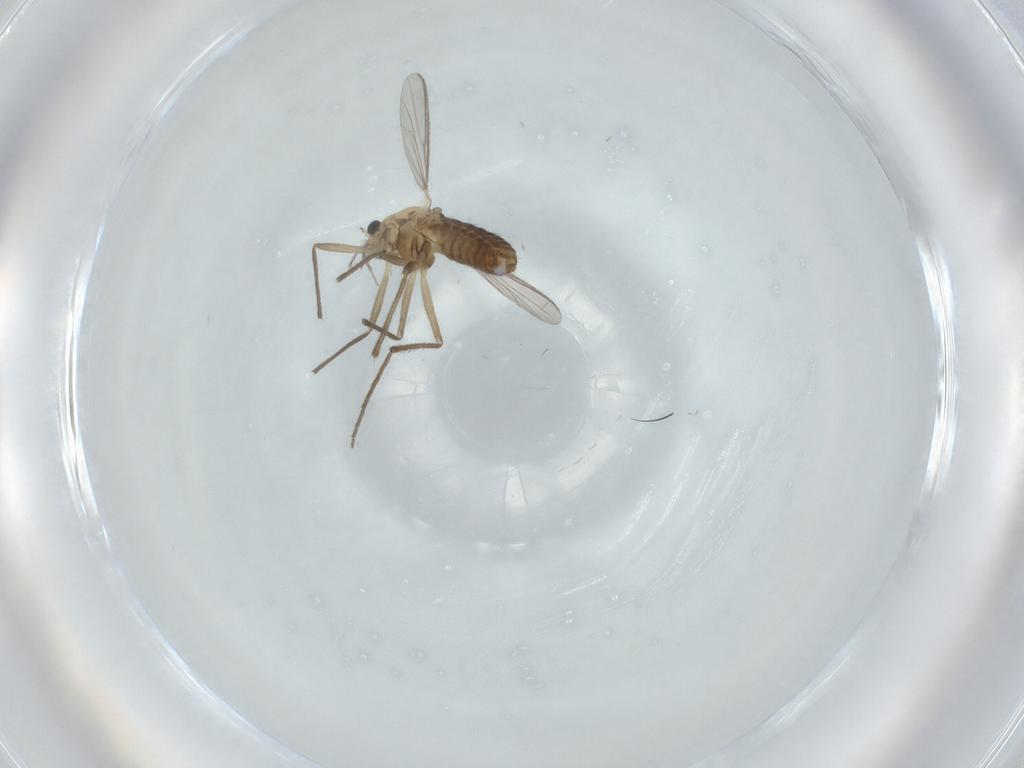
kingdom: Animalia
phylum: Arthropoda
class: Insecta
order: Diptera
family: Chironomidae
